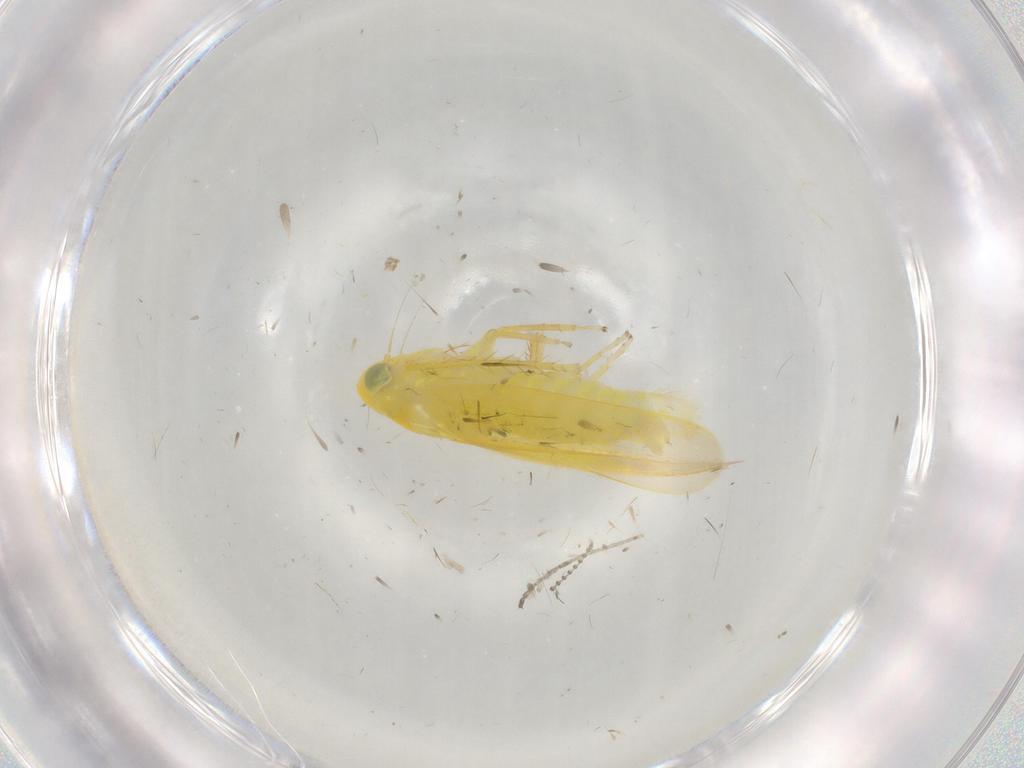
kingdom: Animalia
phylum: Arthropoda
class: Insecta
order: Hemiptera
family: Cicadellidae
